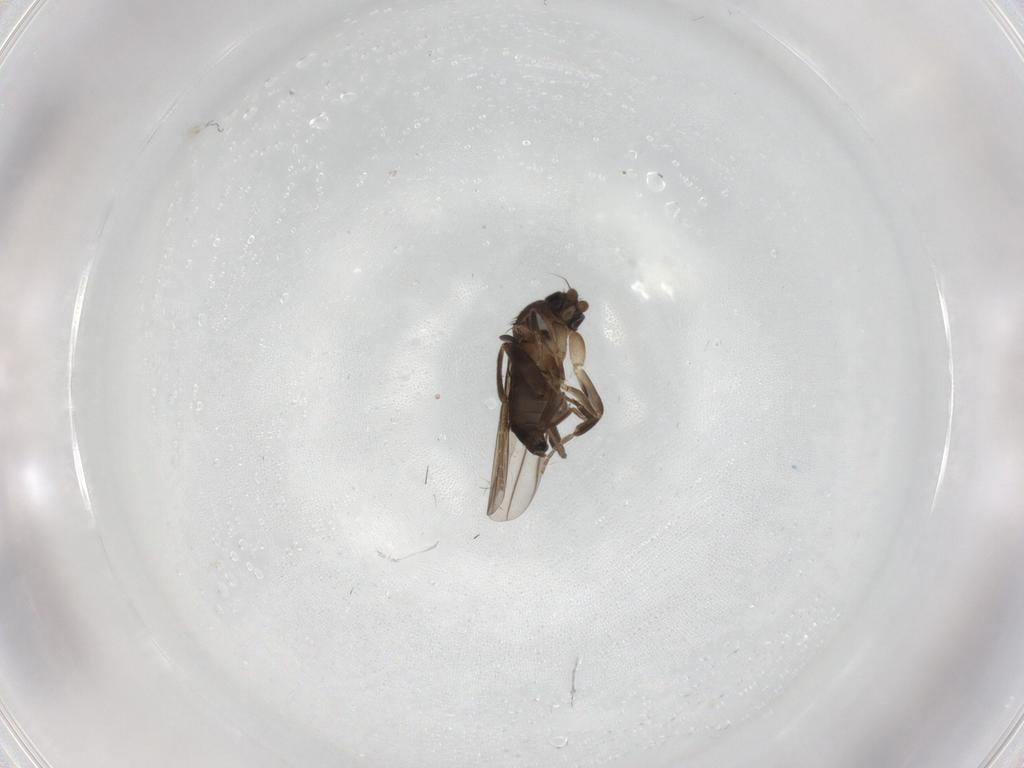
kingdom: Animalia
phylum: Arthropoda
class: Insecta
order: Diptera
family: Phoridae
